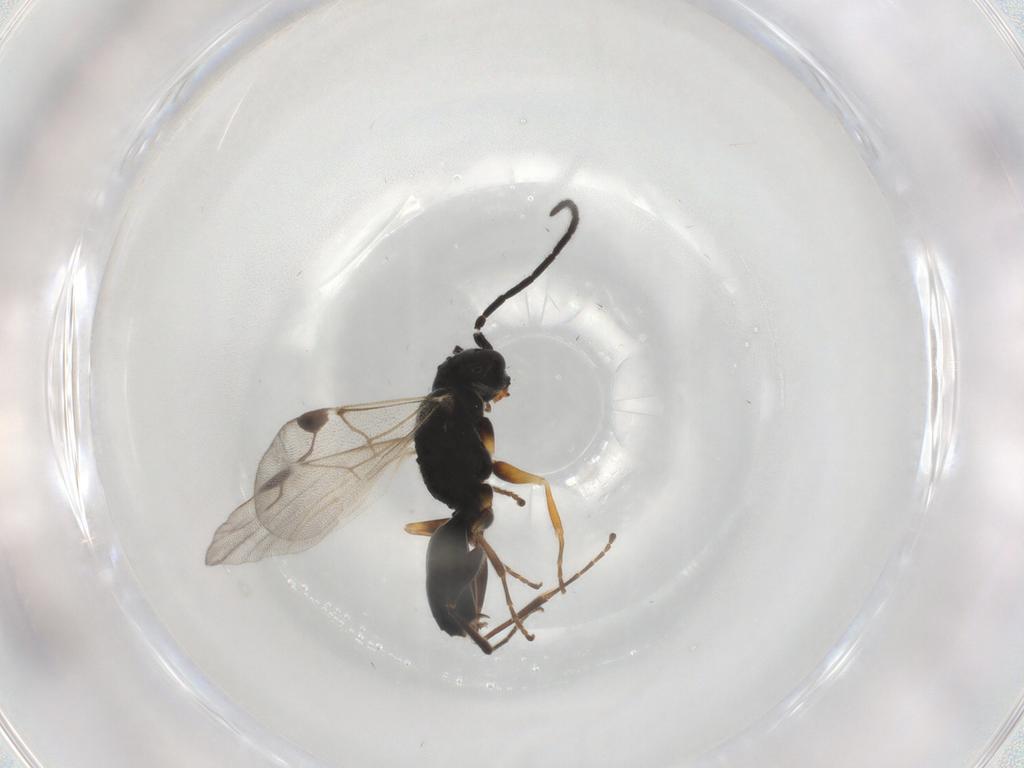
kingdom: Animalia
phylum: Arthropoda
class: Insecta
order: Hymenoptera
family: Dryinidae
